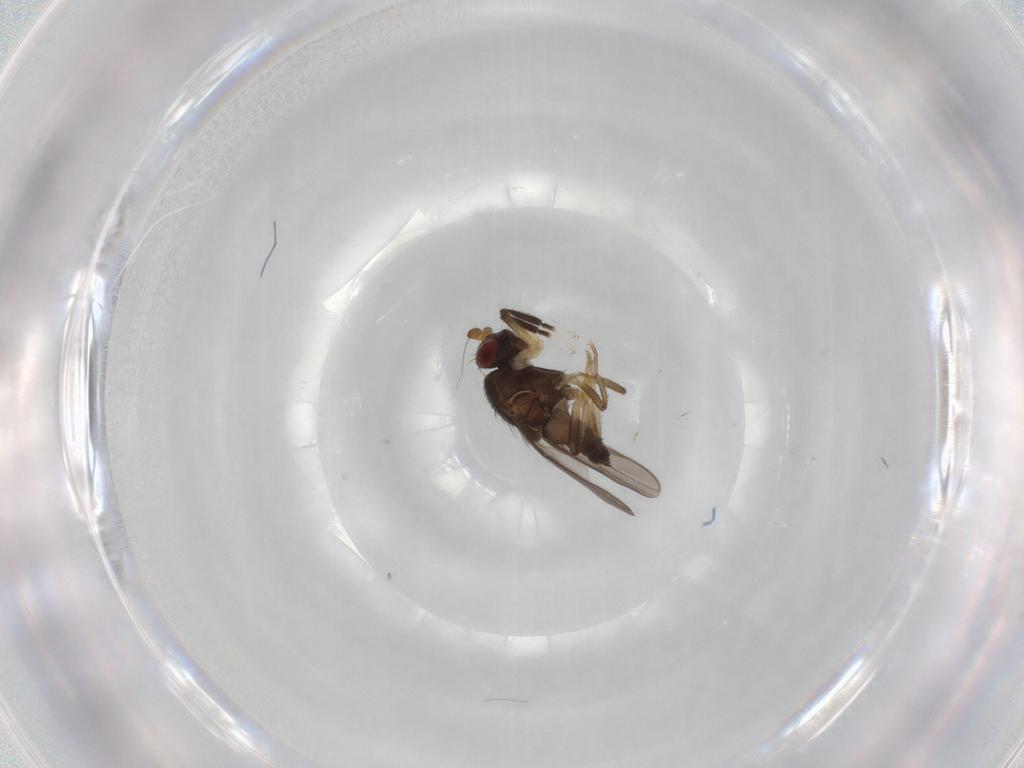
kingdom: Animalia
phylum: Arthropoda
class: Insecta
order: Diptera
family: Sphaeroceridae
